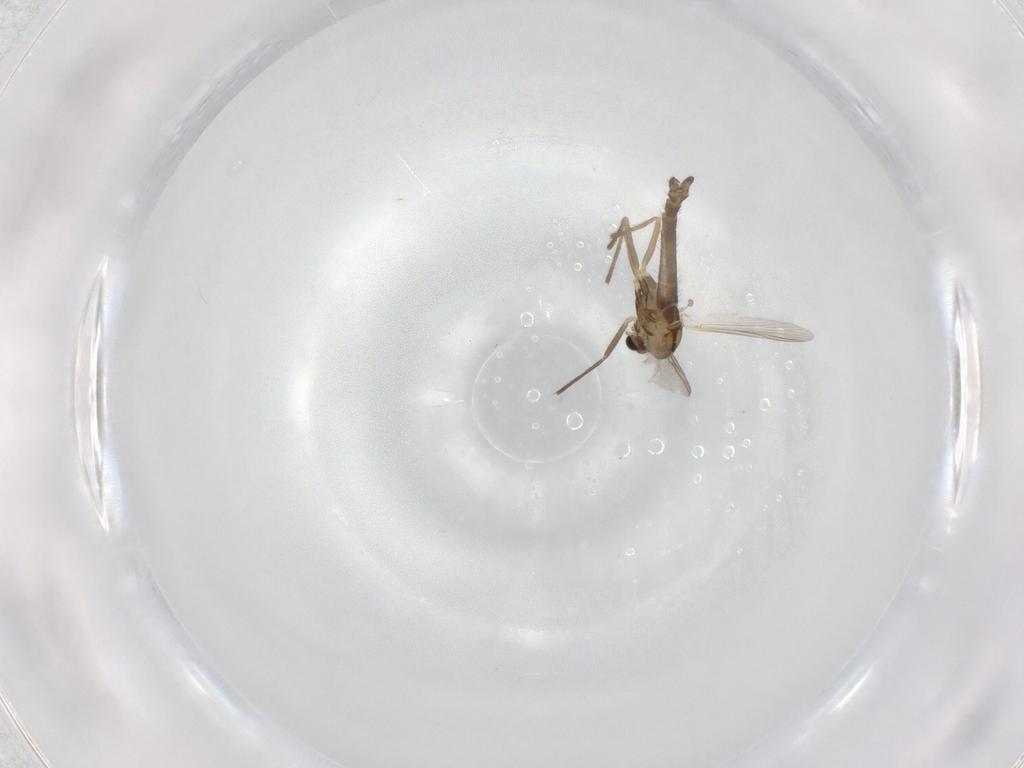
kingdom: Animalia
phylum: Arthropoda
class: Insecta
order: Diptera
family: Chironomidae
